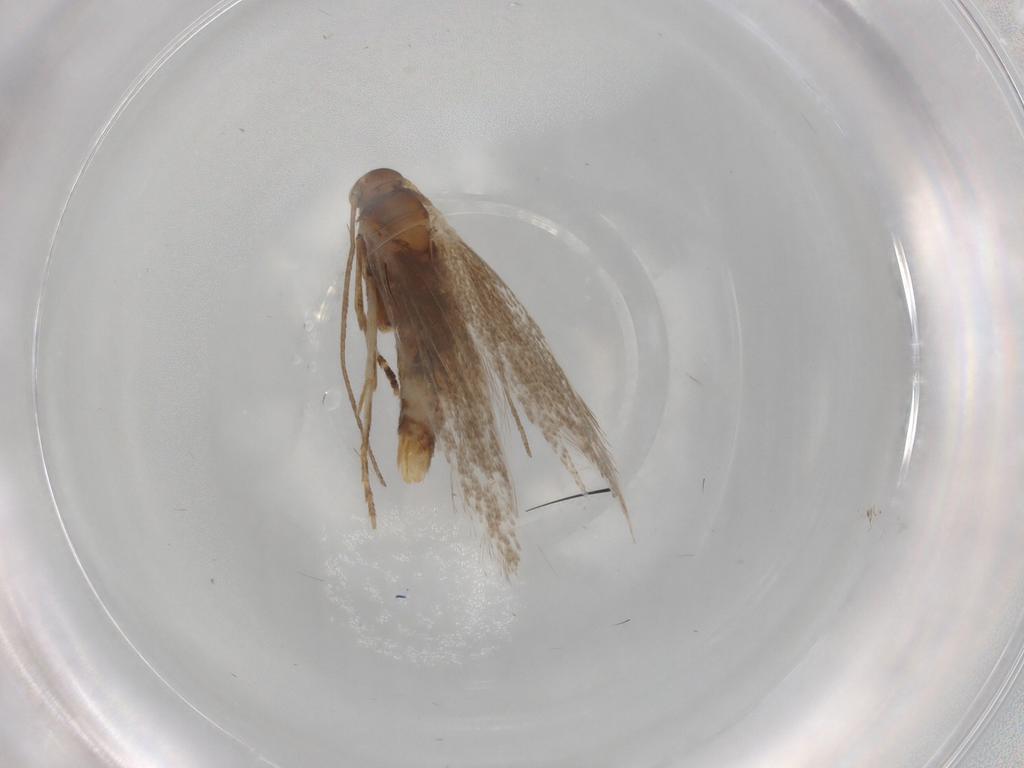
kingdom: Animalia
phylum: Arthropoda
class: Insecta
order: Lepidoptera
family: Elachistidae
